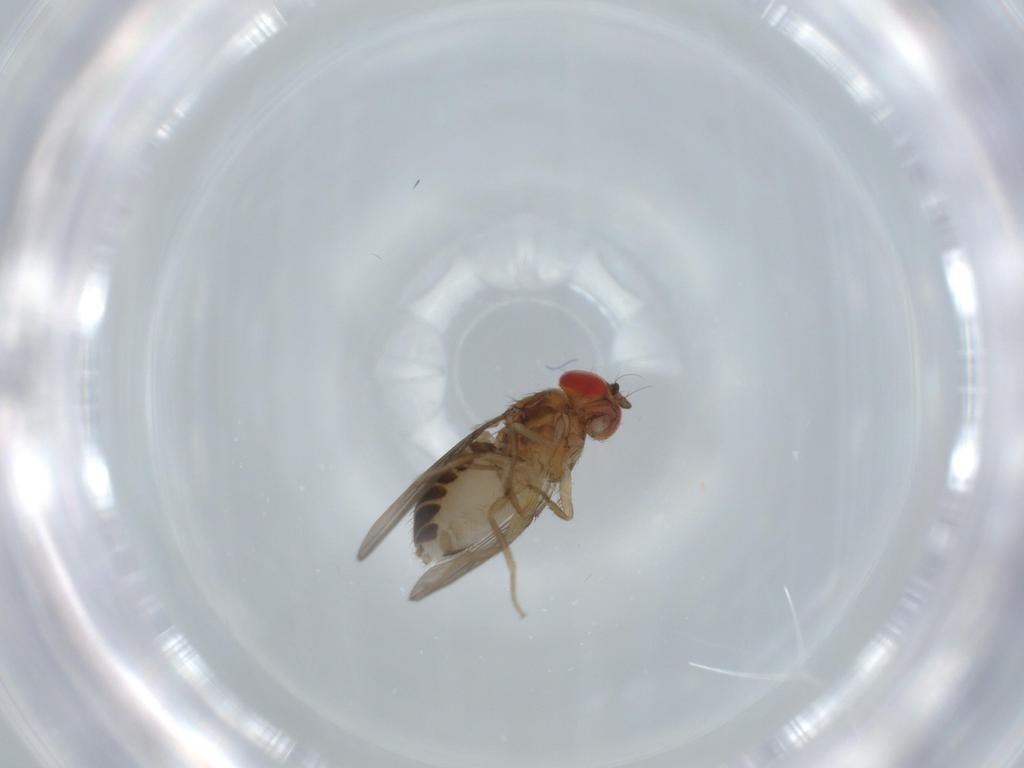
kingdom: Animalia
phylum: Arthropoda
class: Insecta
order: Diptera
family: Drosophilidae
